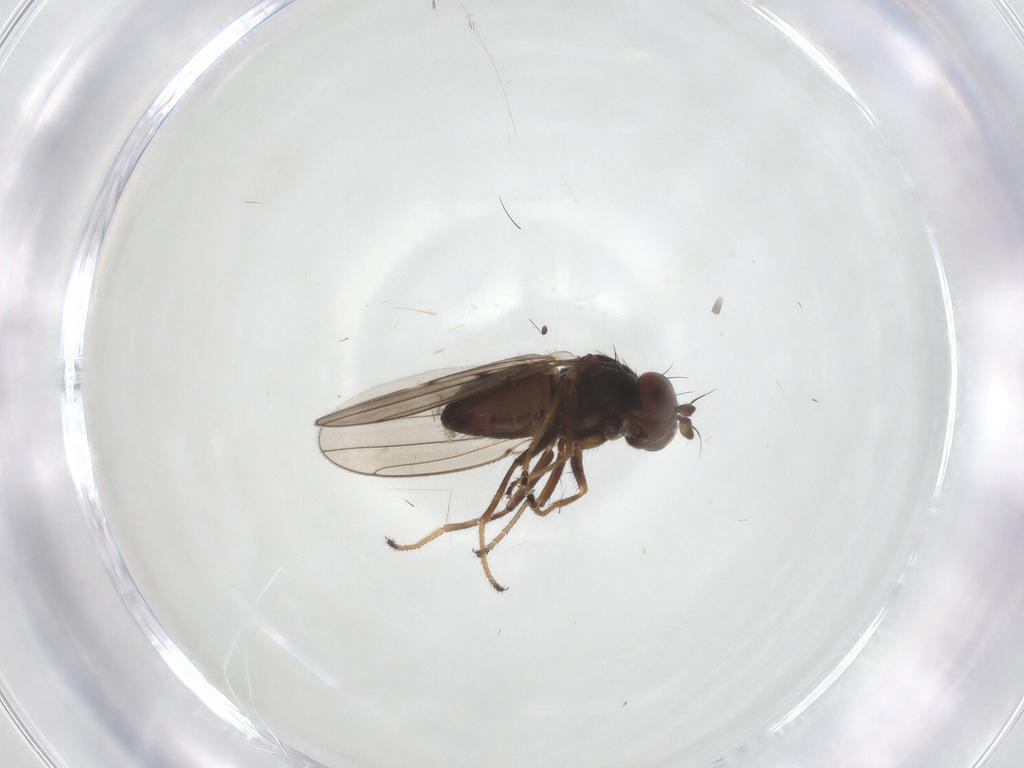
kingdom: Animalia
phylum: Arthropoda
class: Insecta
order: Diptera
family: Ephydridae
